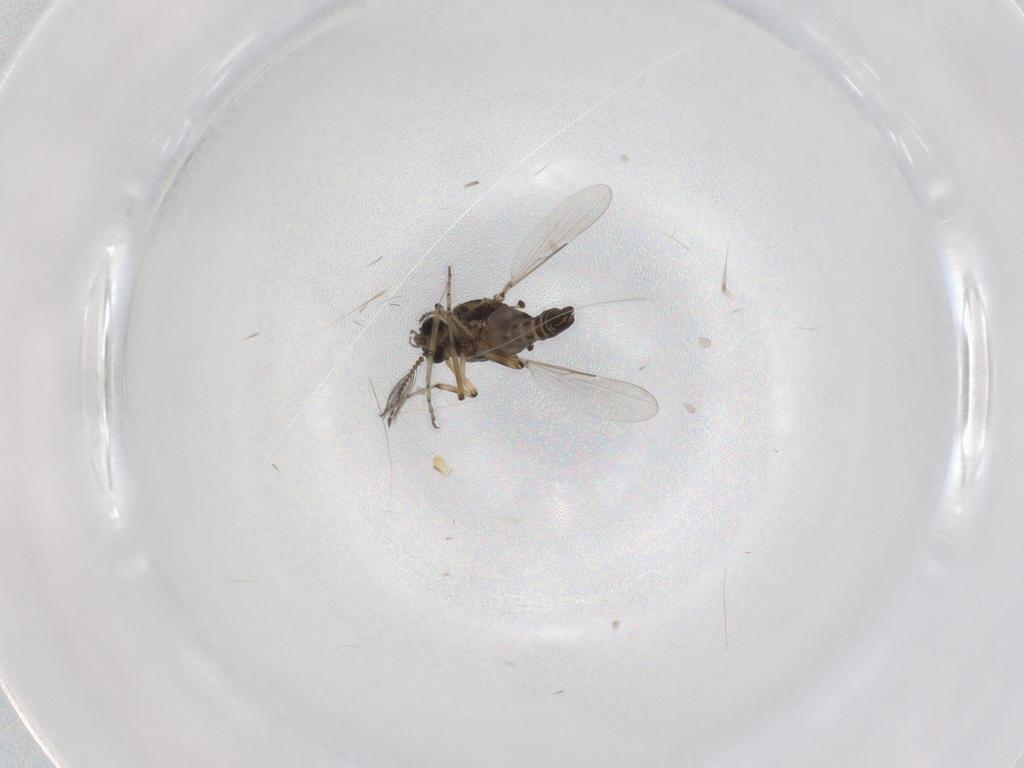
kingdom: Animalia
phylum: Arthropoda
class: Insecta
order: Diptera
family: Ceratopogonidae
